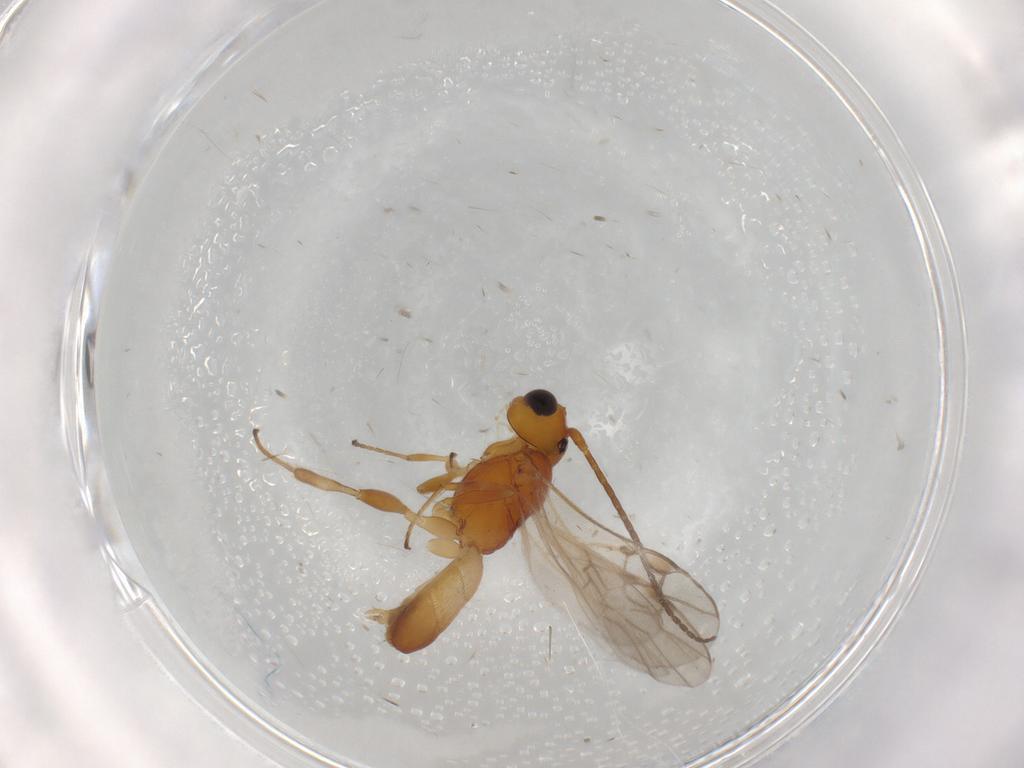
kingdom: Animalia
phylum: Arthropoda
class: Insecta
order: Hymenoptera
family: Braconidae
